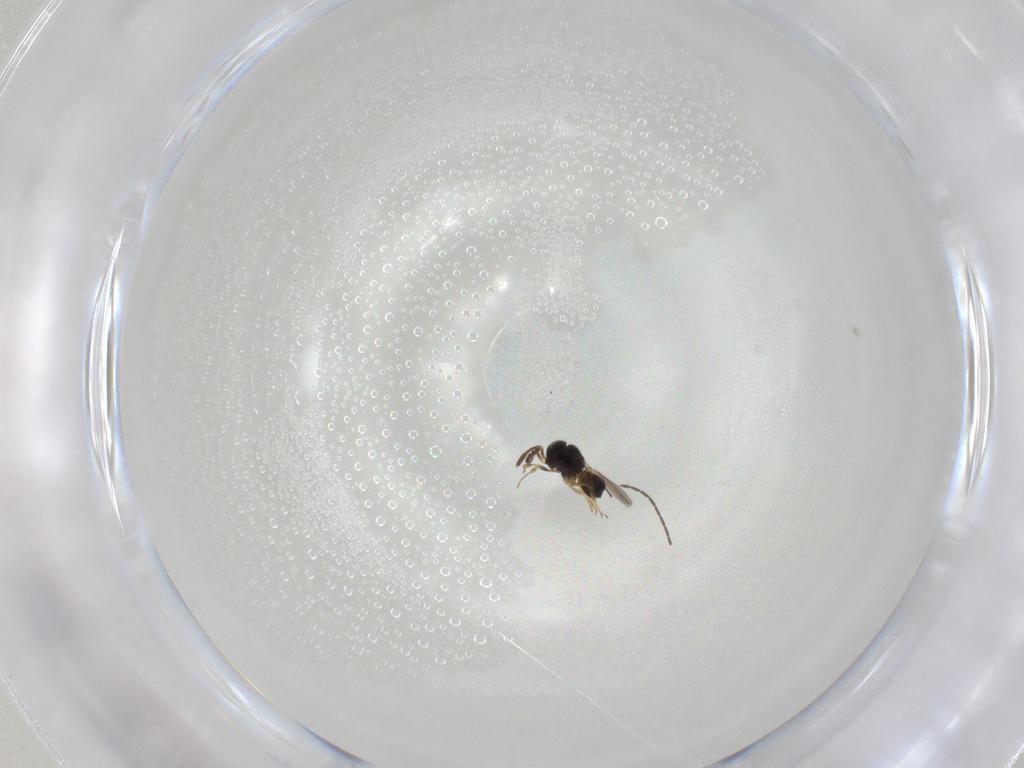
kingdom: Animalia
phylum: Arthropoda
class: Insecta
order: Hymenoptera
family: Scelionidae
